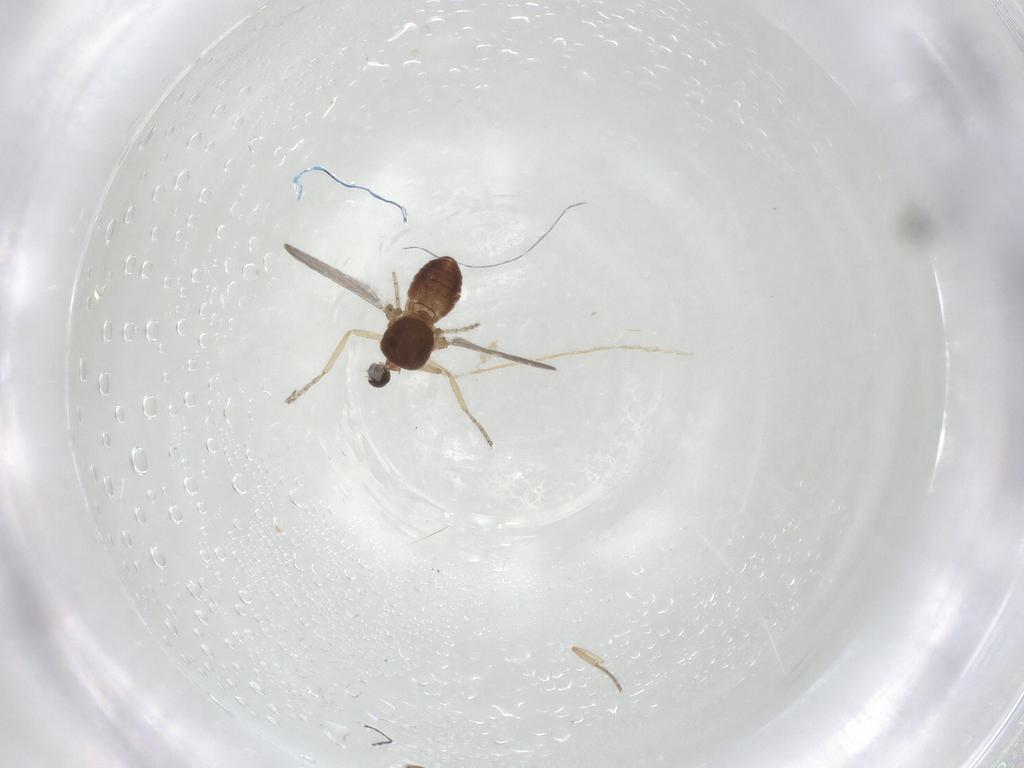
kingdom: Animalia
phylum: Arthropoda
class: Insecta
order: Diptera
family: Ceratopogonidae
